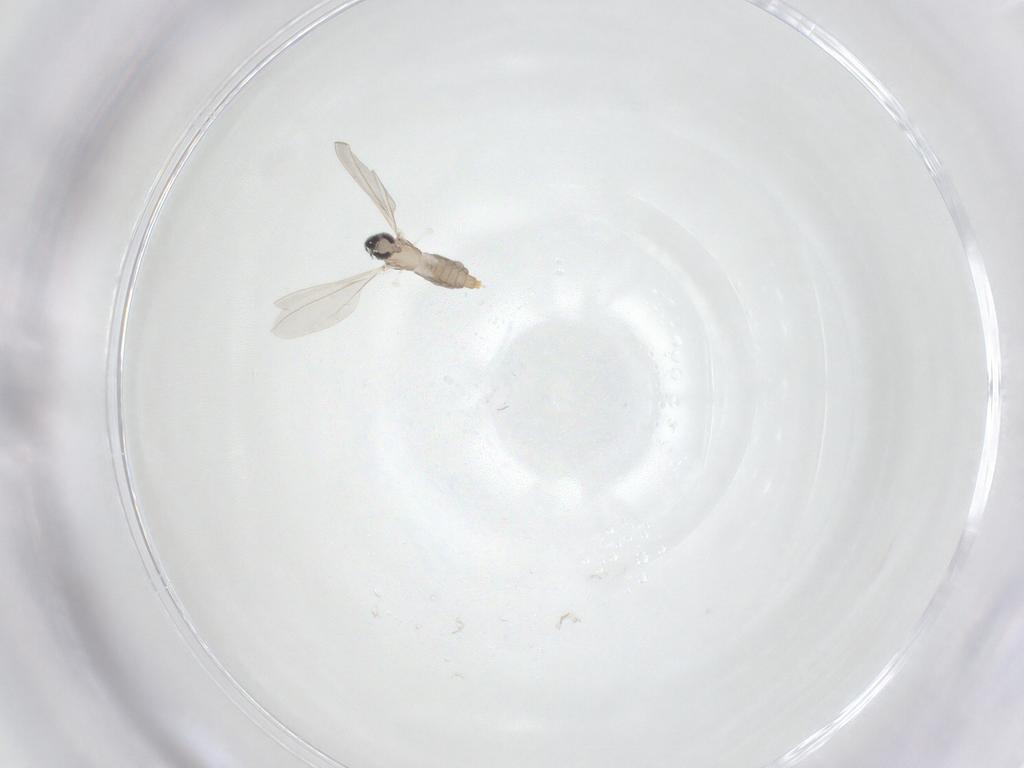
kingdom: Animalia
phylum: Arthropoda
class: Insecta
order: Diptera
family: Cecidomyiidae
